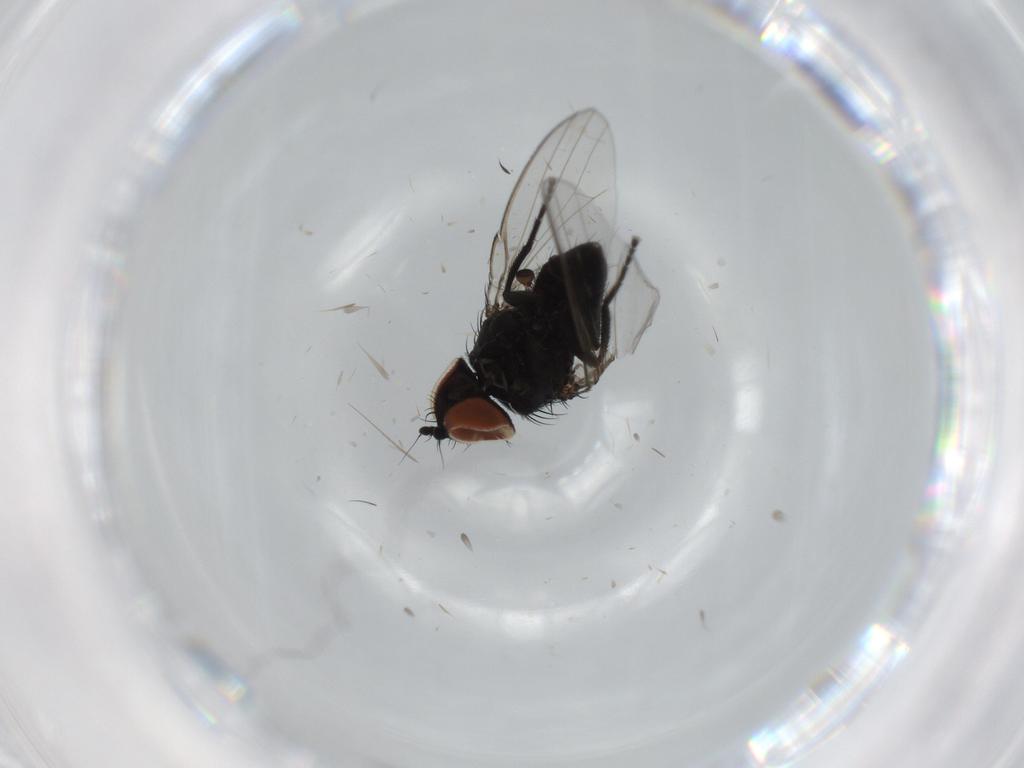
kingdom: Animalia
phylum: Arthropoda
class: Insecta
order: Diptera
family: Milichiidae
